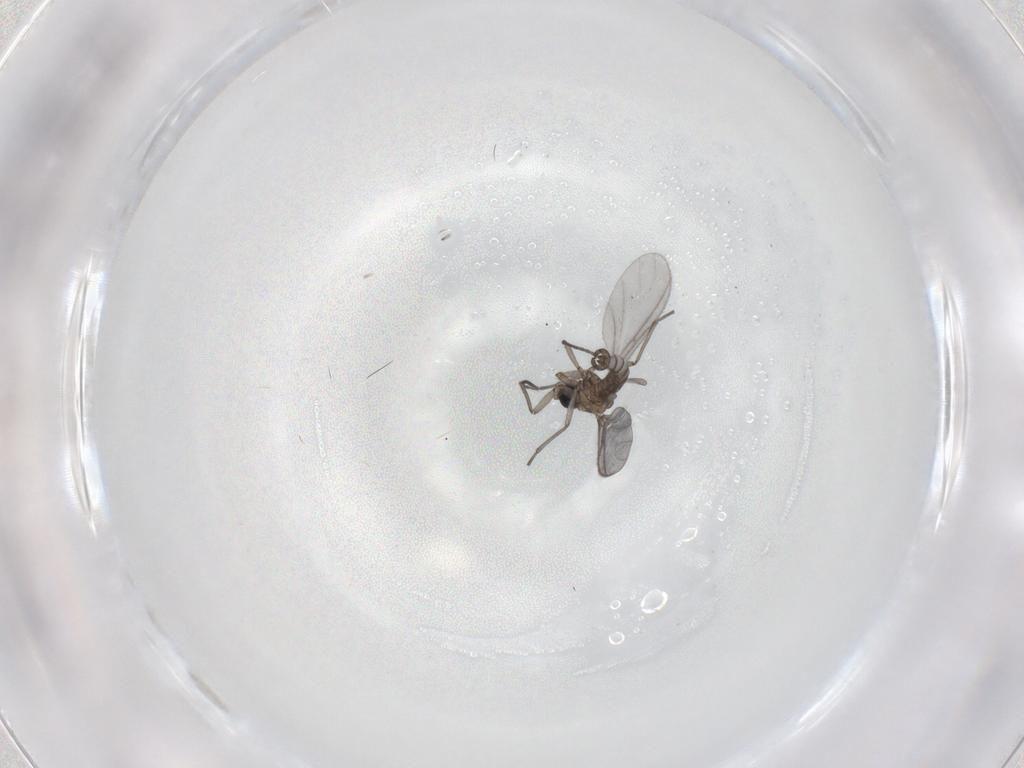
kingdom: Animalia
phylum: Arthropoda
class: Insecta
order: Diptera
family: Sciaridae
